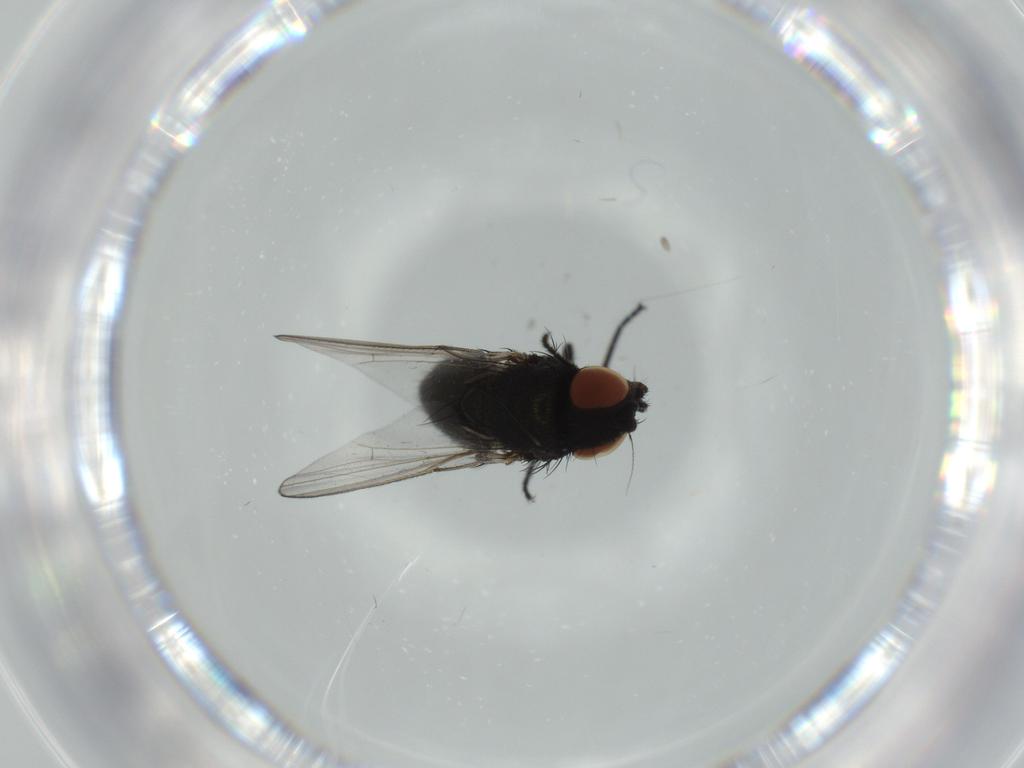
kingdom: Animalia
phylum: Arthropoda
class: Insecta
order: Diptera
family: Milichiidae
